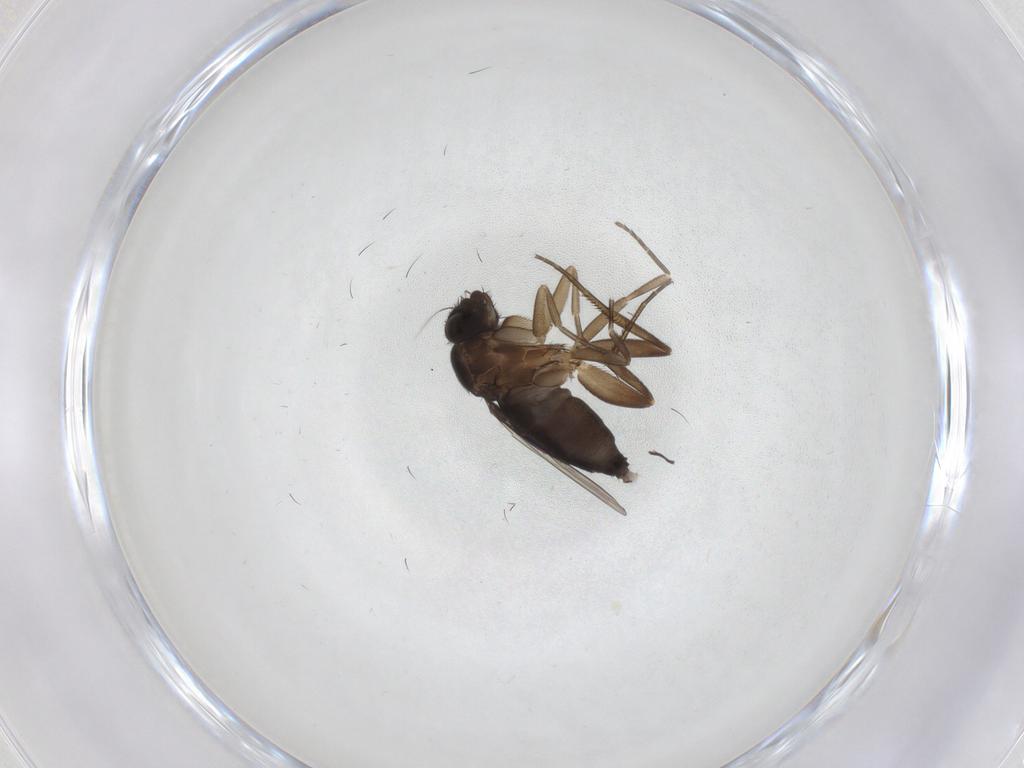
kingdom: Animalia
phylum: Arthropoda
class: Insecta
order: Diptera
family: Phoridae
